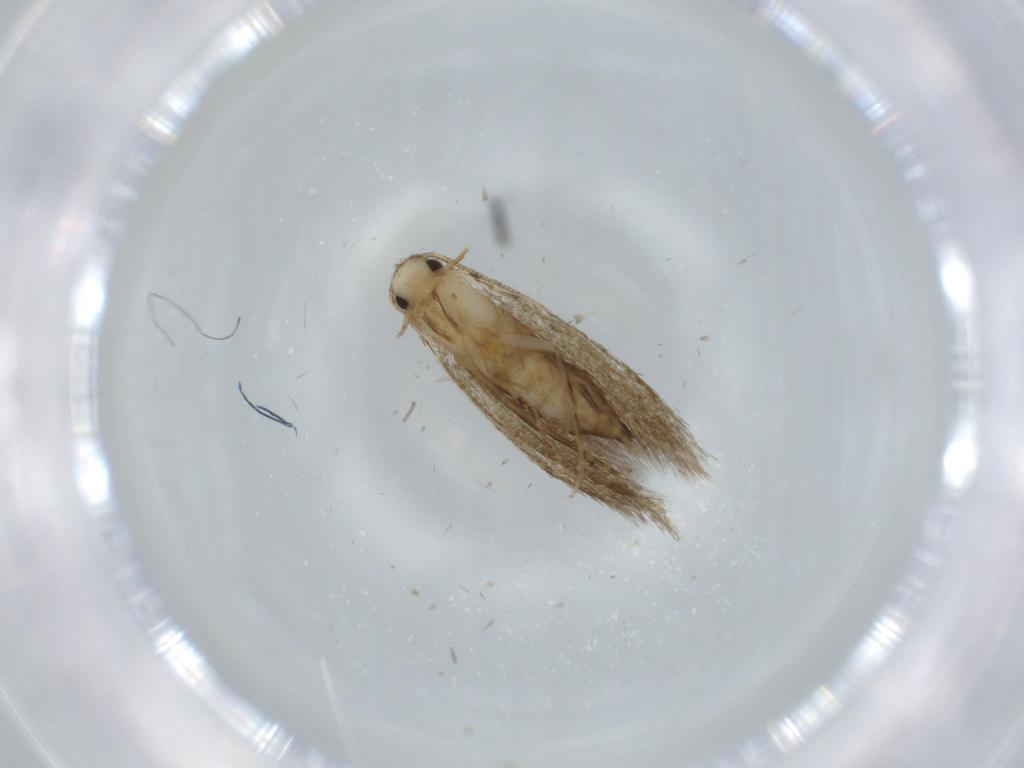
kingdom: Animalia
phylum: Arthropoda
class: Insecta
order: Lepidoptera
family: Tineidae
